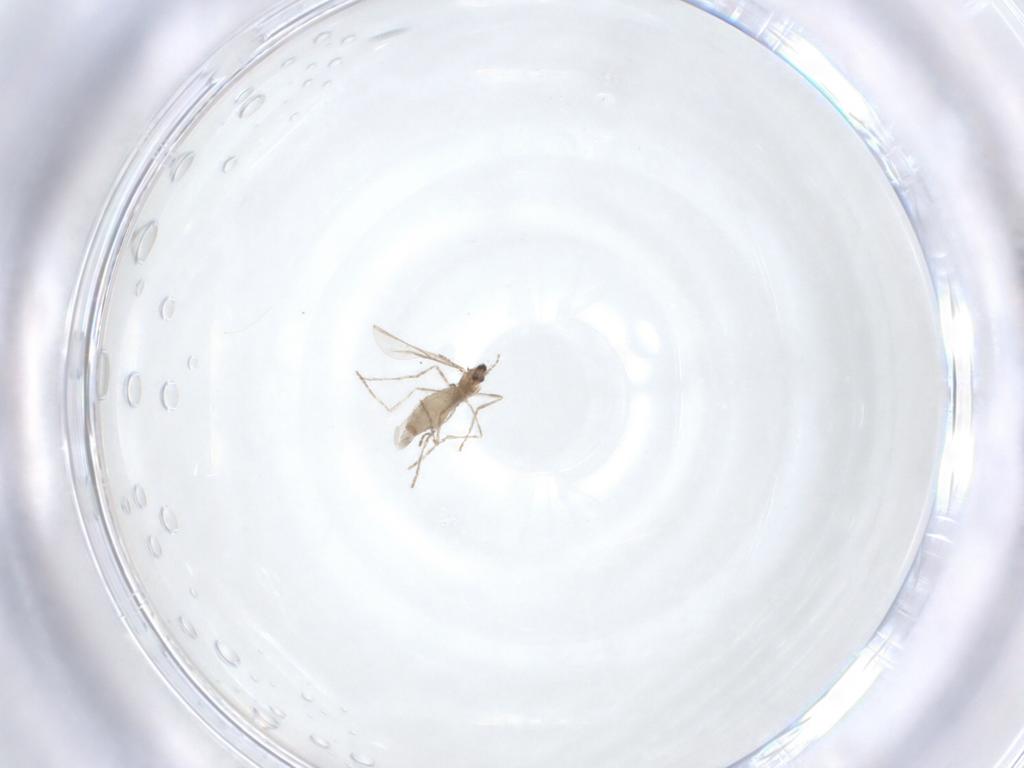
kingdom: Animalia
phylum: Arthropoda
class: Insecta
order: Diptera
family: Cecidomyiidae
